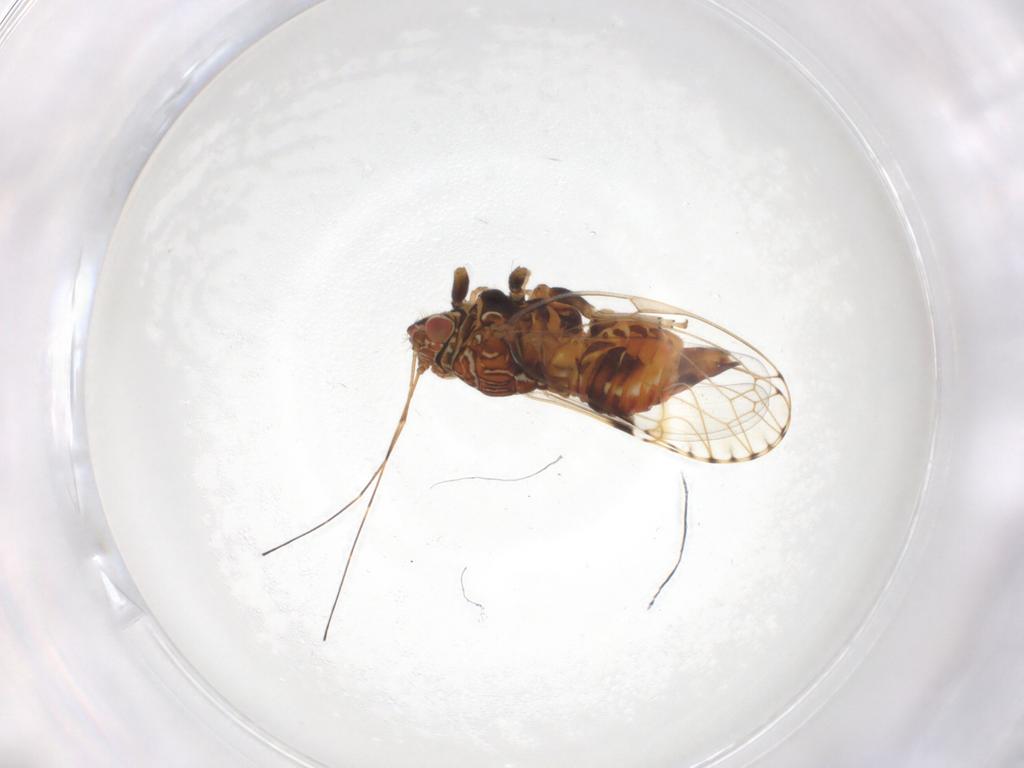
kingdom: Animalia
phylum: Arthropoda
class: Insecta
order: Hemiptera
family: Psylloidea_incertae_sedis
